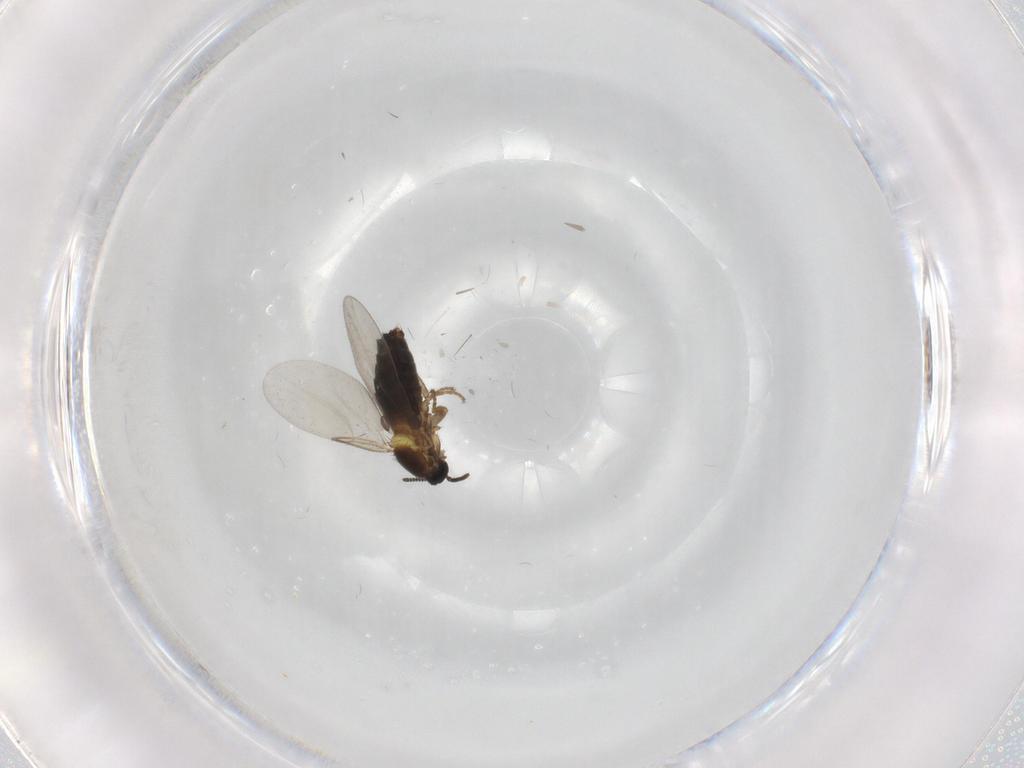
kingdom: Animalia
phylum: Arthropoda
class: Insecta
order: Diptera
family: Scatopsidae
